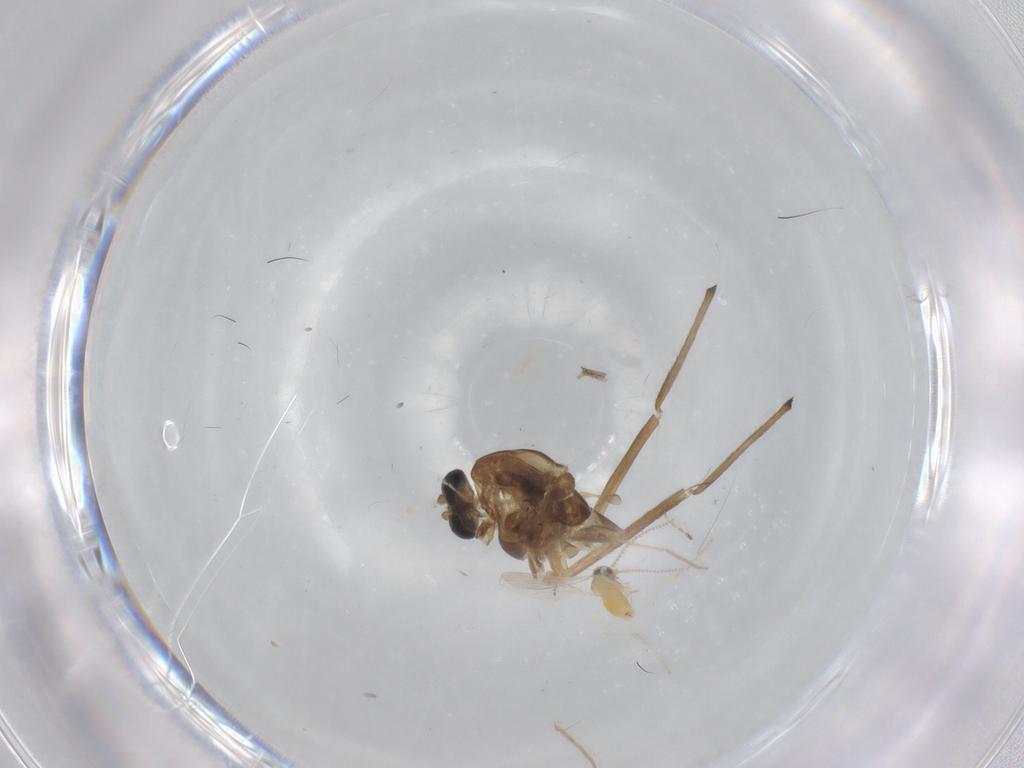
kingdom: Animalia
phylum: Arthropoda
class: Insecta
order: Diptera
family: Chironomidae
